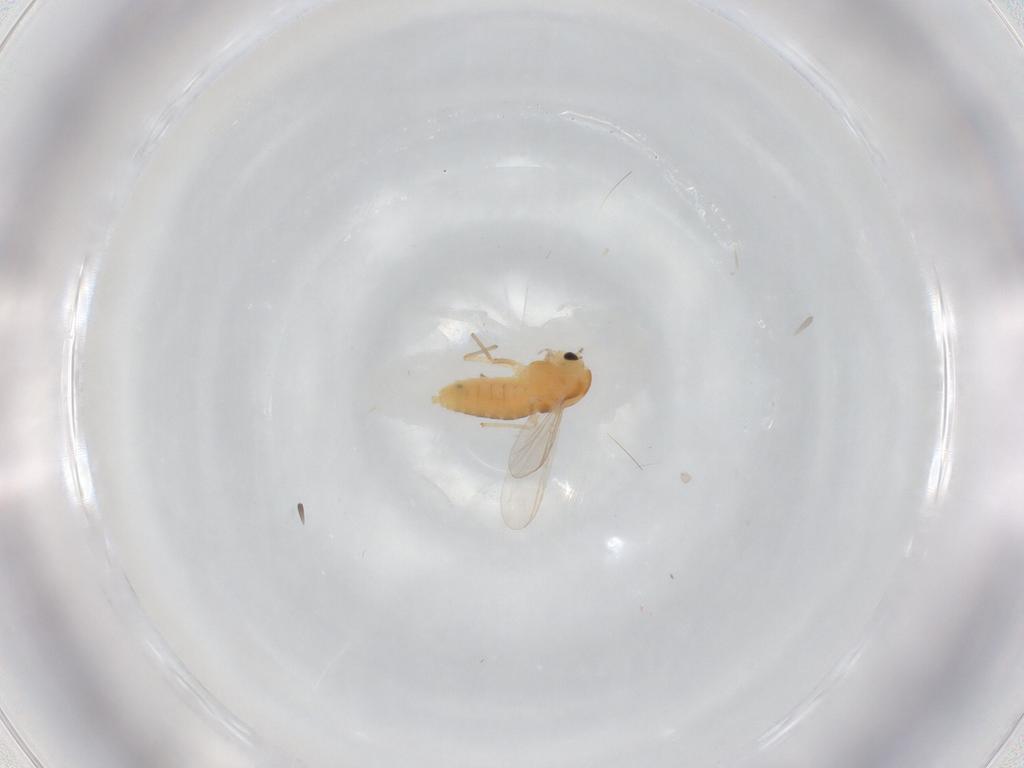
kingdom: Animalia
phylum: Arthropoda
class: Insecta
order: Diptera
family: Chironomidae
